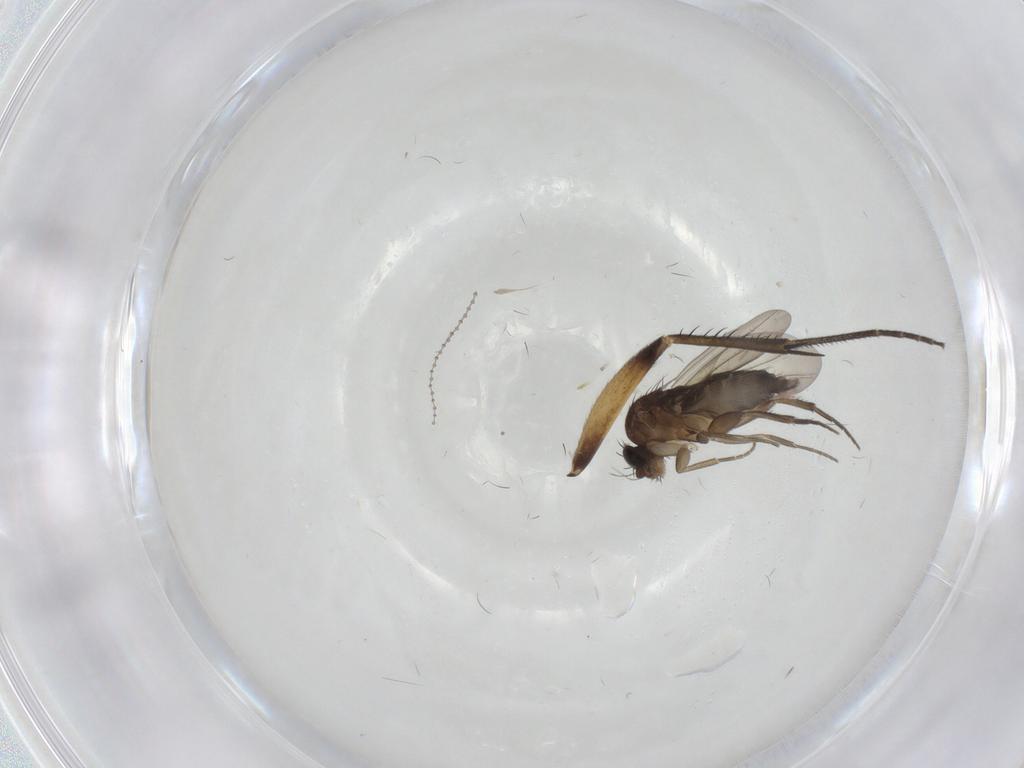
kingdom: Animalia
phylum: Arthropoda
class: Insecta
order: Diptera
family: Phoridae
